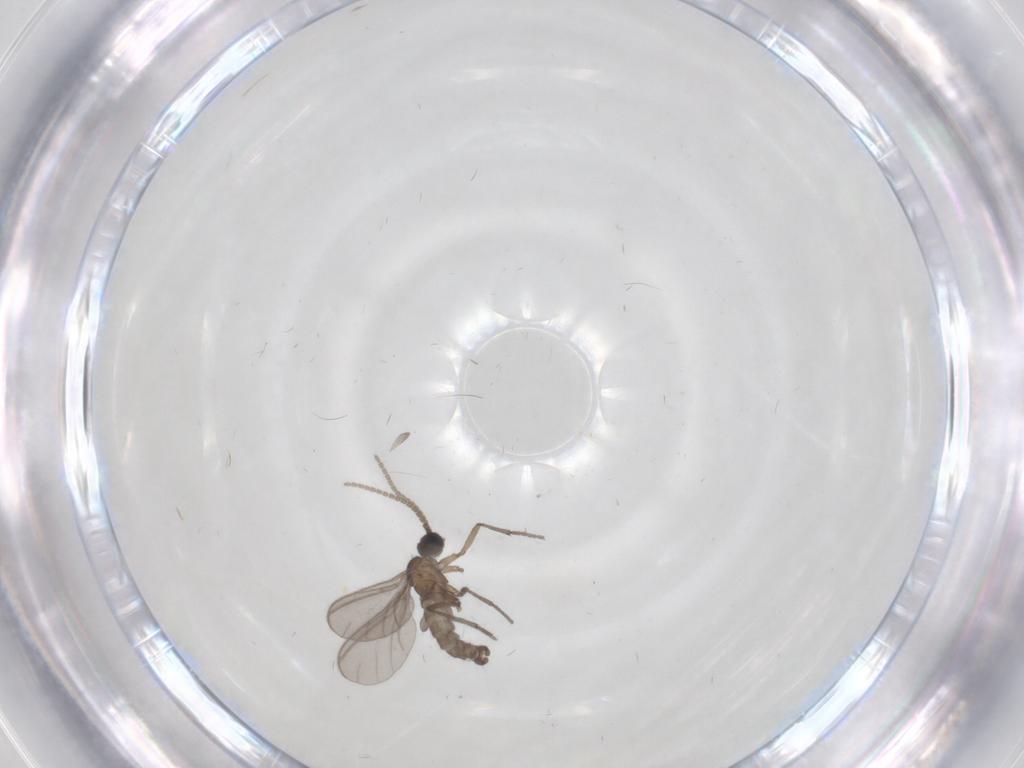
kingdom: Animalia
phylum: Arthropoda
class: Insecta
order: Diptera
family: Sciaridae
